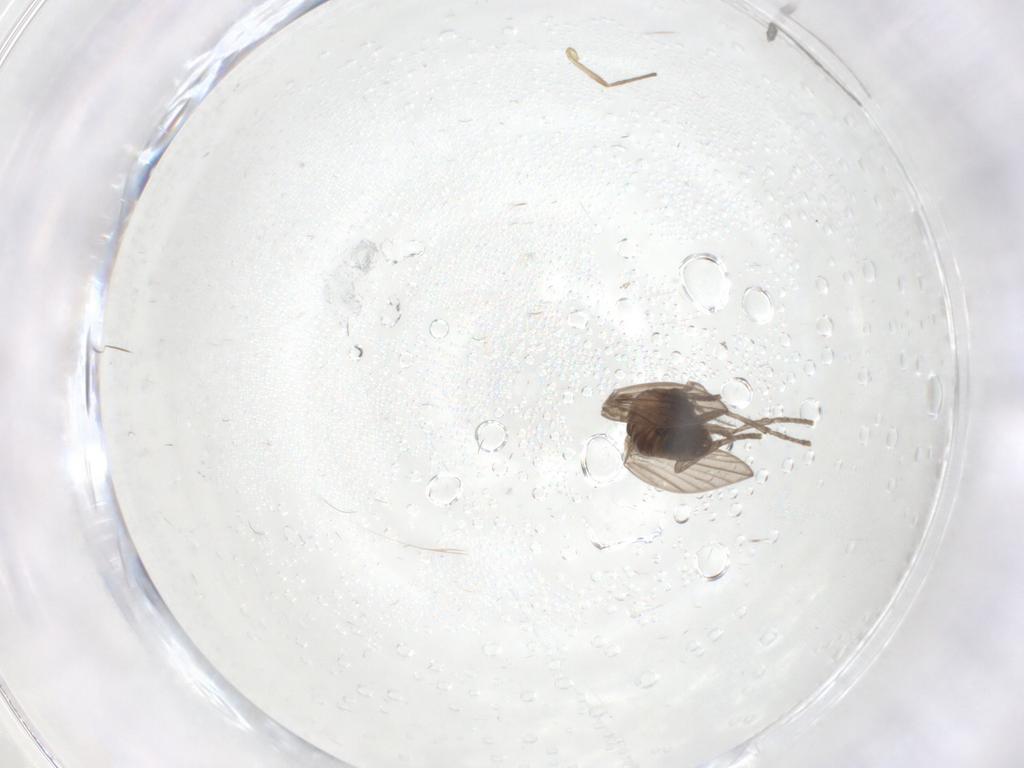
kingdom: Animalia
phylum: Arthropoda
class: Insecta
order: Diptera
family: Psychodidae
